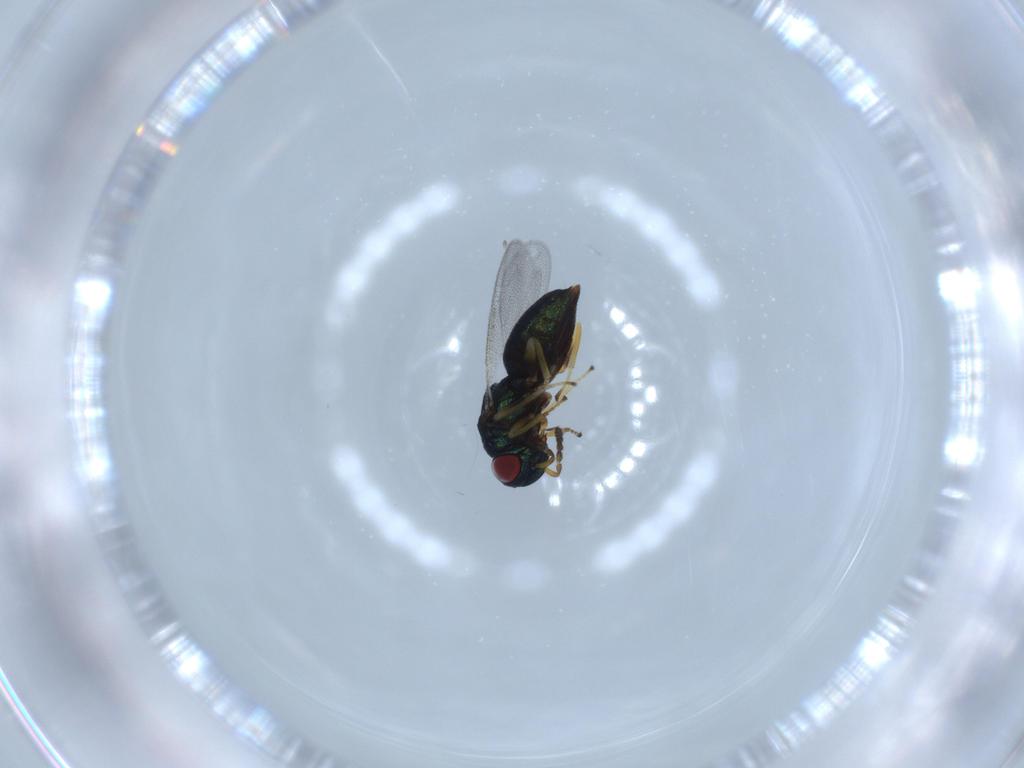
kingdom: Animalia
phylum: Arthropoda
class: Insecta
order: Hymenoptera
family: Eulophidae
